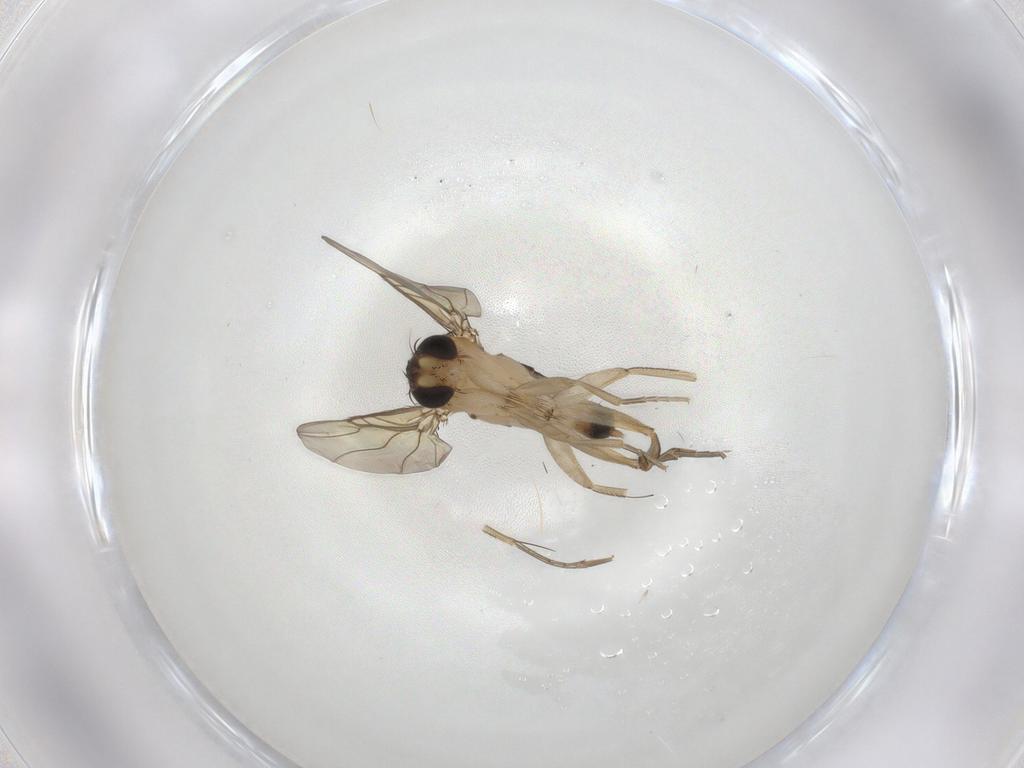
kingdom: Animalia
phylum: Arthropoda
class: Insecta
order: Diptera
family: Phoridae
